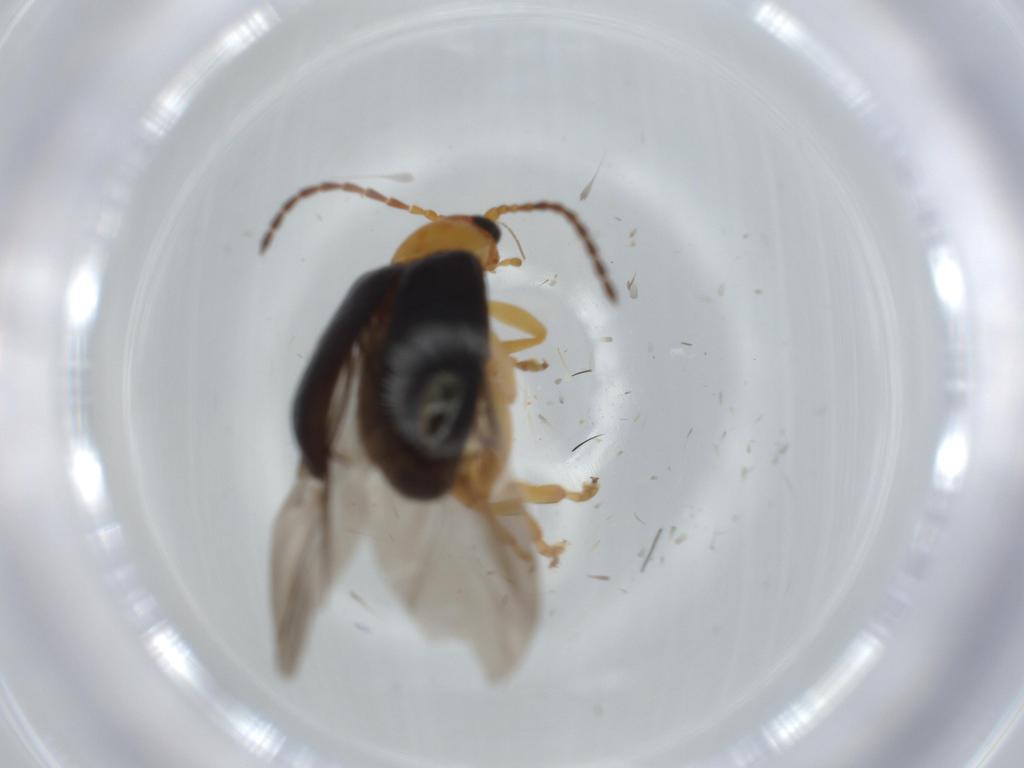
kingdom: Animalia
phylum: Arthropoda
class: Insecta
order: Coleoptera
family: Chrysomelidae
